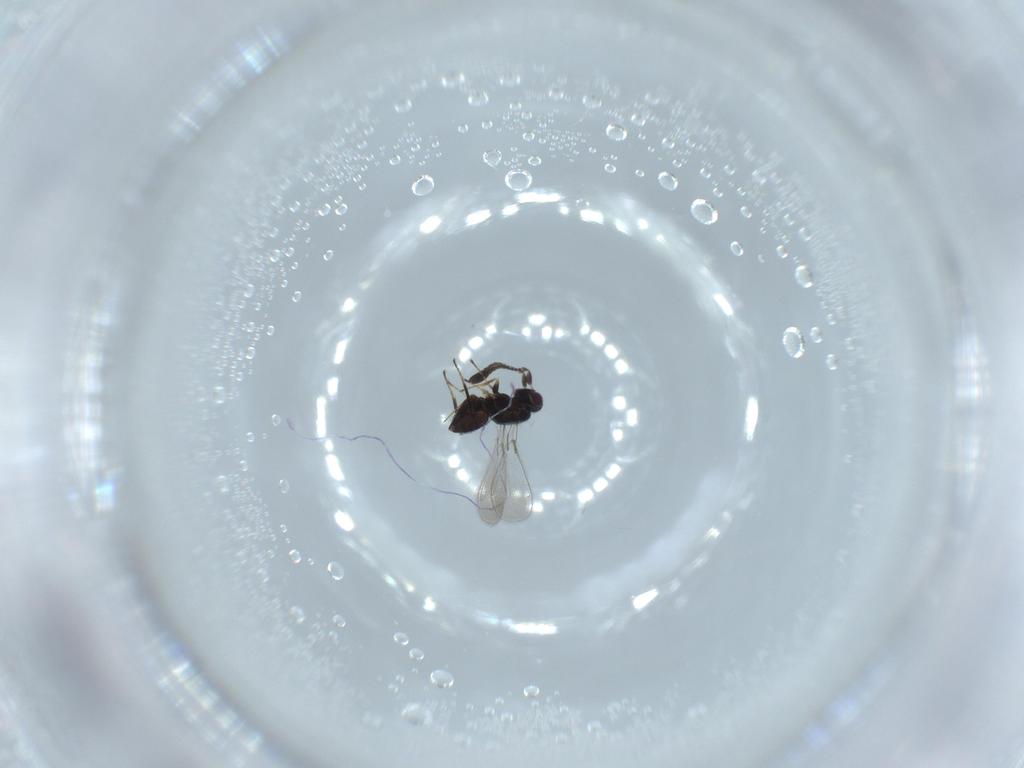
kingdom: Animalia
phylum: Arthropoda
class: Insecta
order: Hymenoptera
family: Mymaridae
